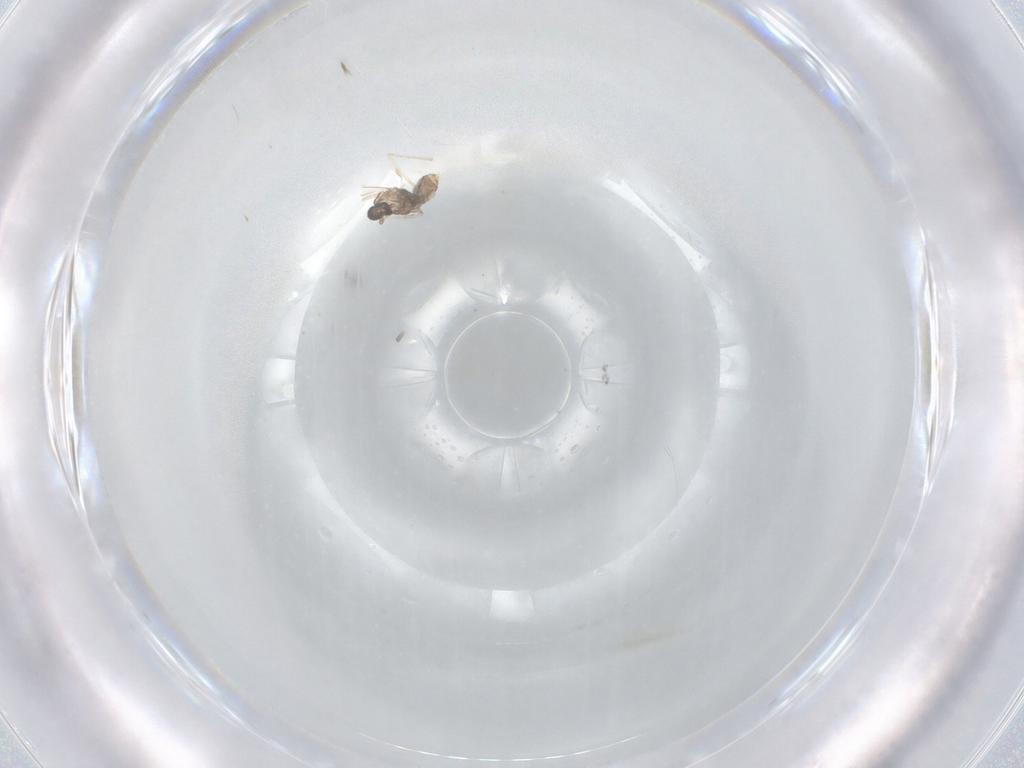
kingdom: Animalia
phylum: Arthropoda
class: Insecta
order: Diptera
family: Cecidomyiidae
